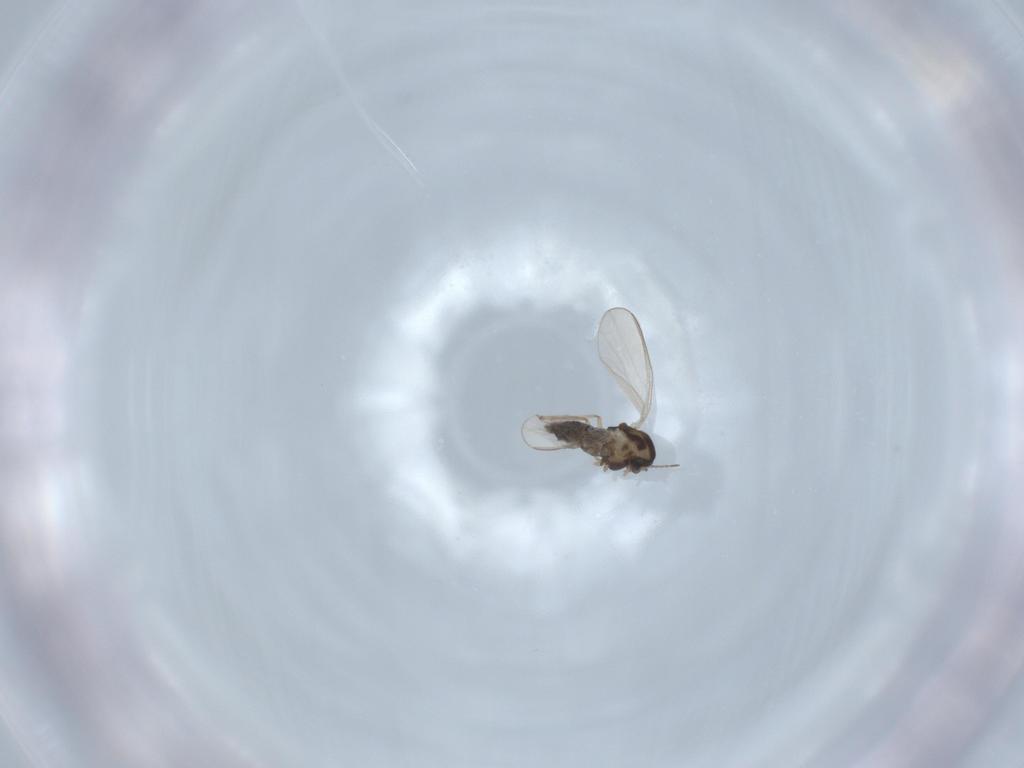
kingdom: Animalia
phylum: Arthropoda
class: Insecta
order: Diptera
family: Chironomidae
